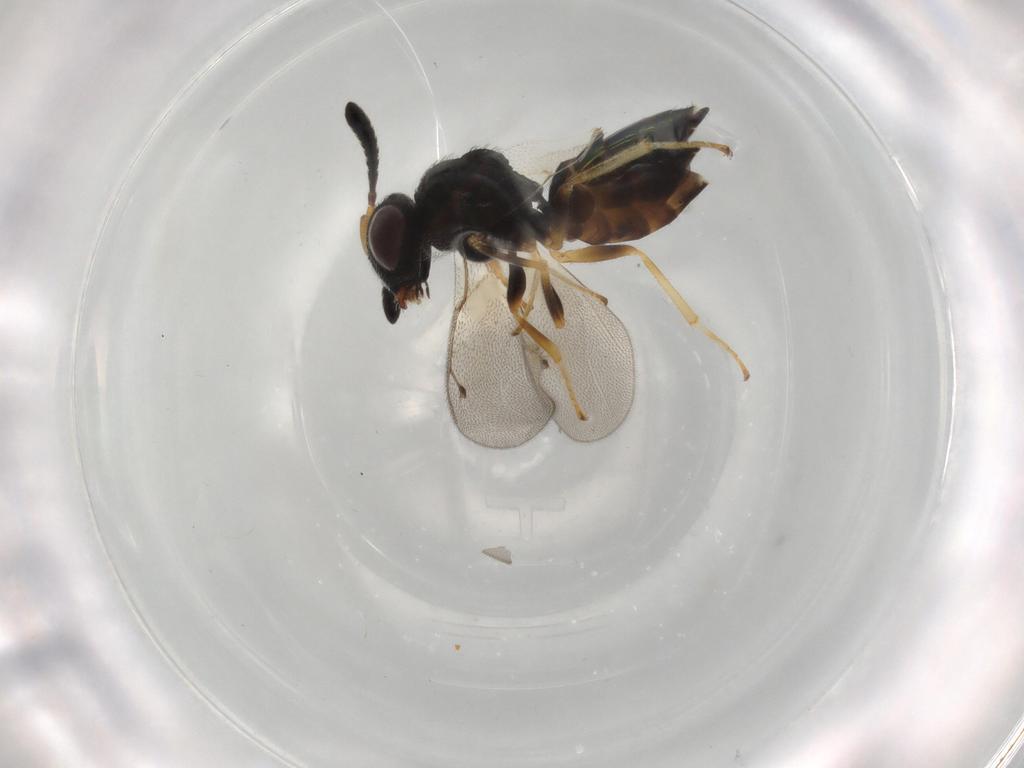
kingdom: Animalia
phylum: Arthropoda
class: Insecta
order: Hymenoptera
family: Pteromalidae
